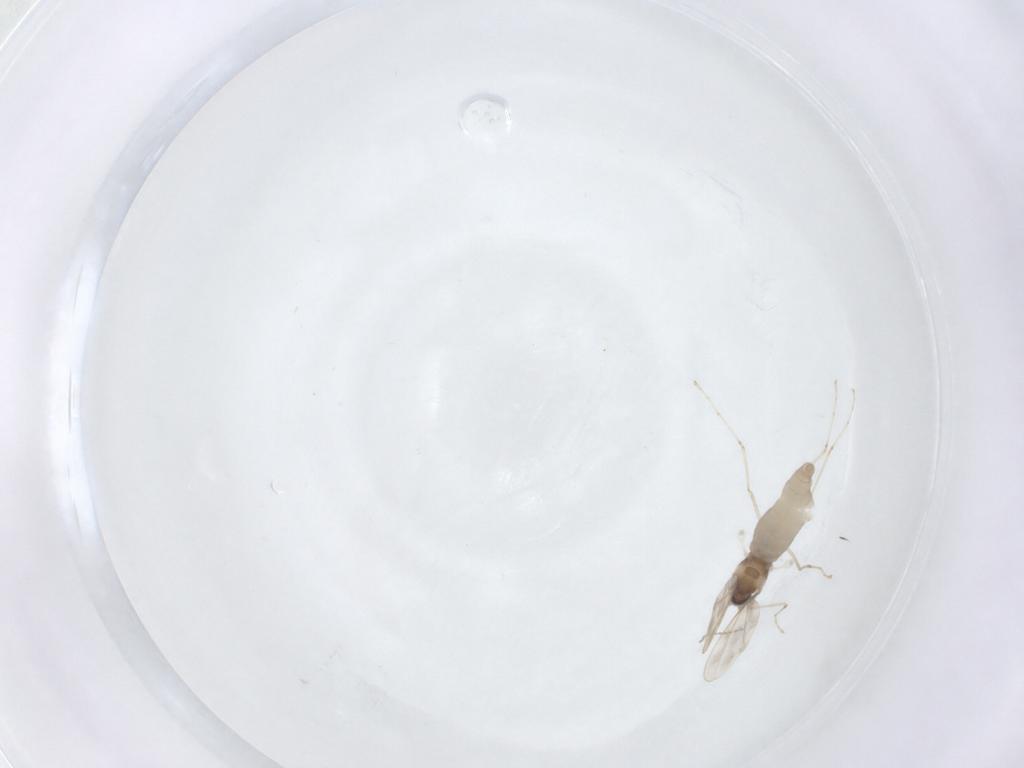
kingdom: Animalia
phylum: Arthropoda
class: Insecta
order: Diptera
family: Cecidomyiidae
